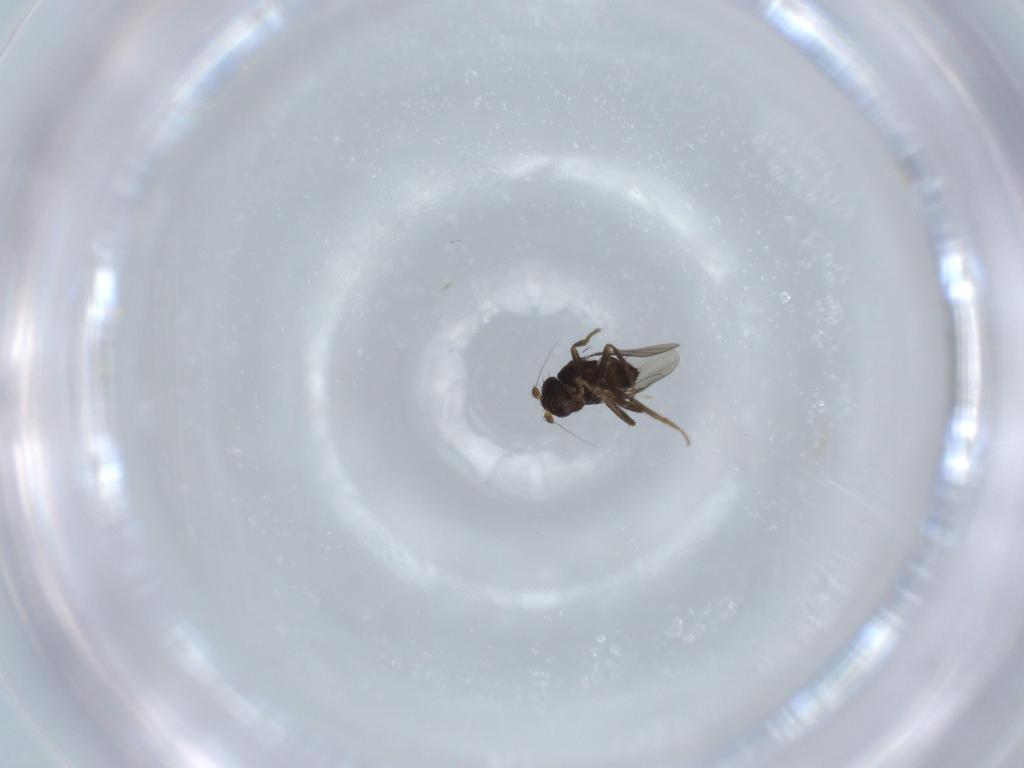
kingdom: Animalia
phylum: Arthropoda
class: Insecta
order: Diptera
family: Sphaeroceridae
